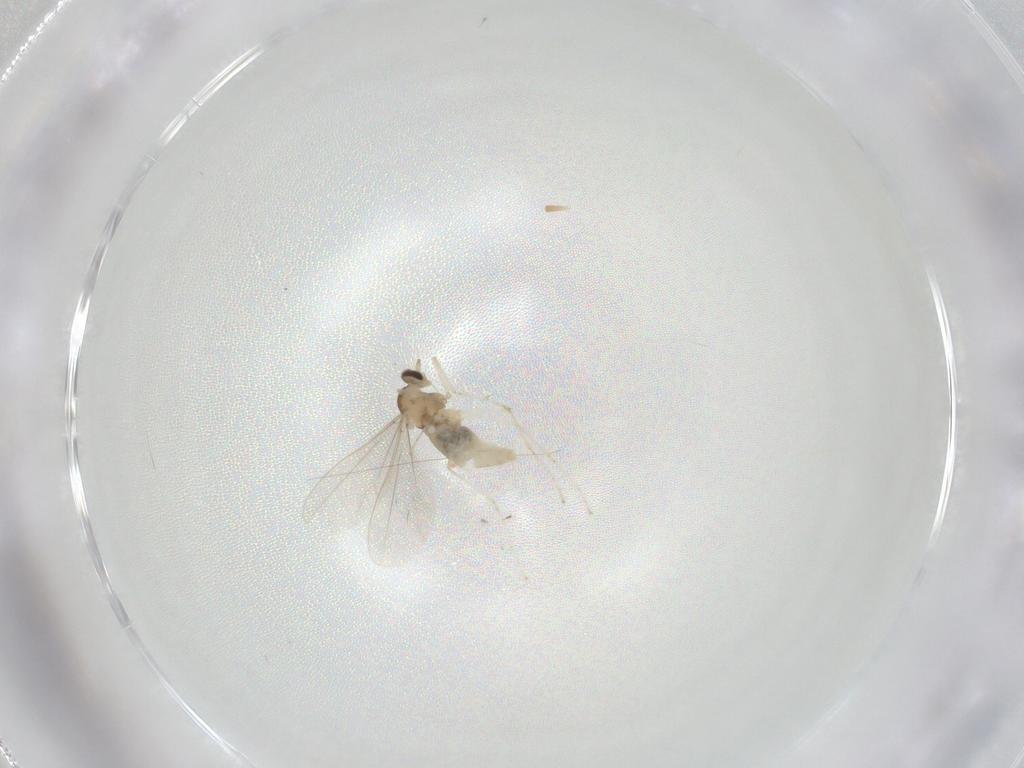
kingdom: Animalia
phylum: Arthropoda
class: Insecta
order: Diptera
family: Cecidomyiidae
